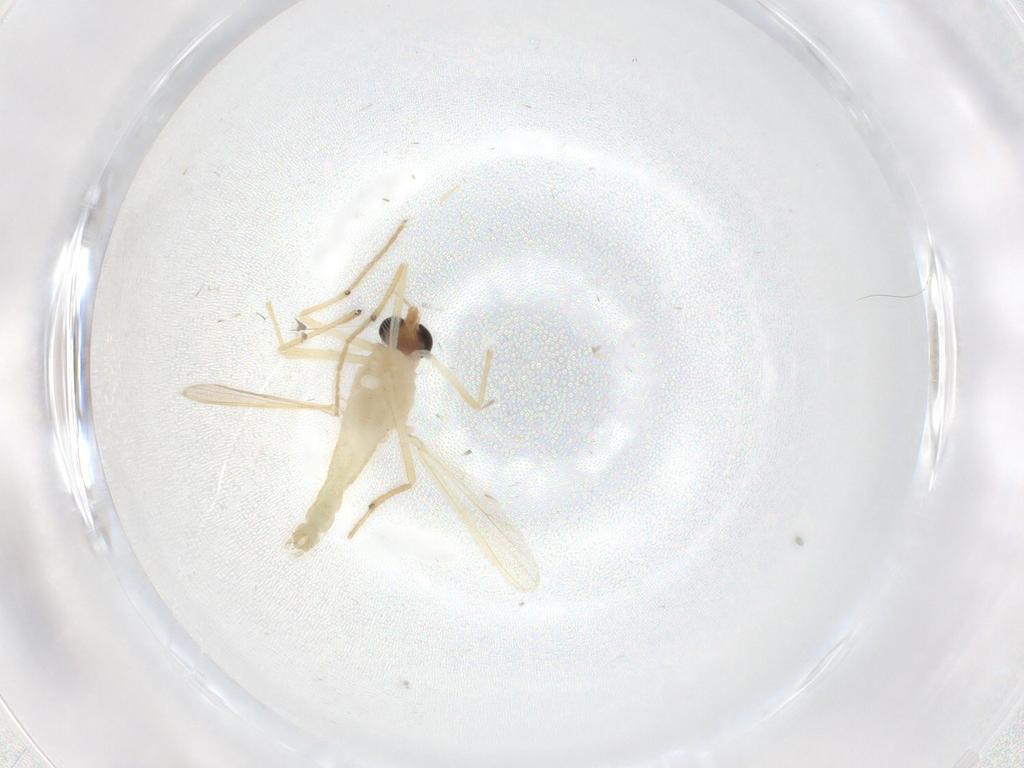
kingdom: Animalia
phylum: Arthropoda
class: Insecta
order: Diptera
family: Chironomidae
